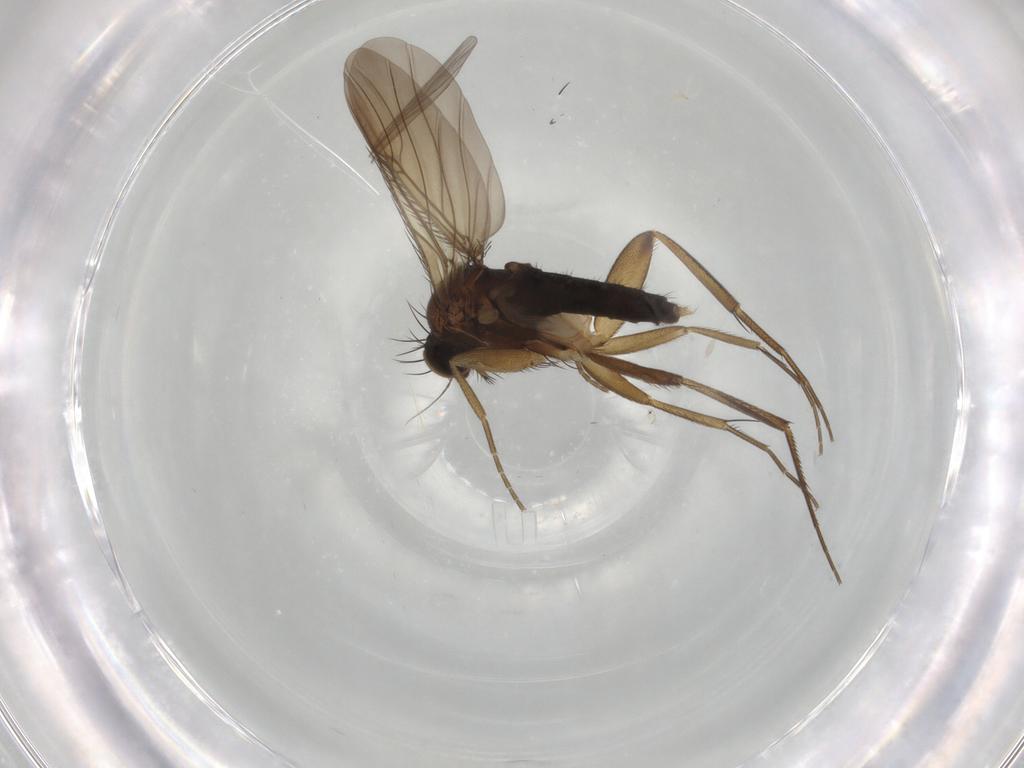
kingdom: Animalia
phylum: Arthropoda
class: Insecta
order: Diptera
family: Phoridae
